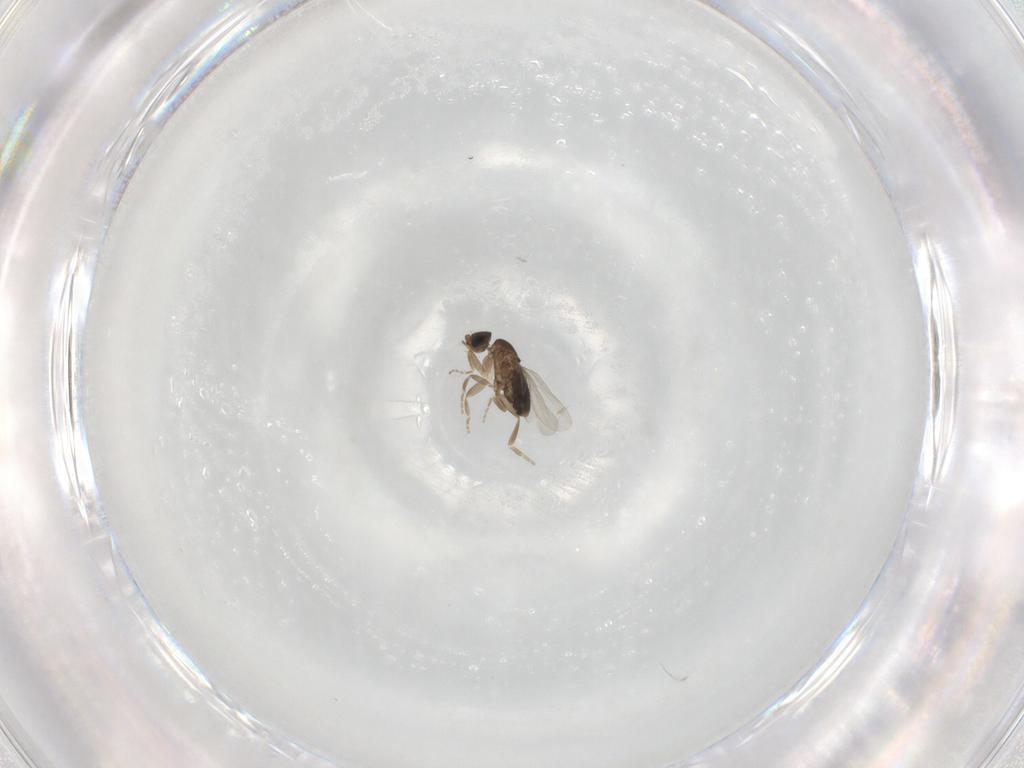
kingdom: Animalia
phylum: Arthropoda
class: Insecta
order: Diptera
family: Phoridae
